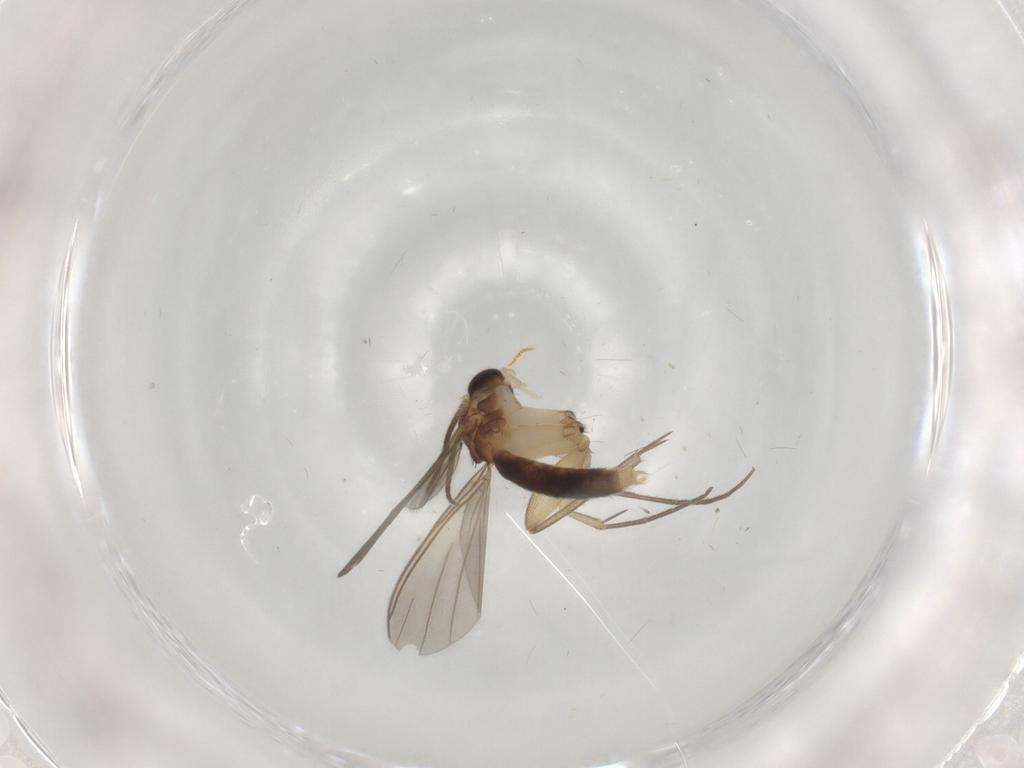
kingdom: Animalia
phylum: Arthropoda
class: Insecta
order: Diptera
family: Mycetophilidae
